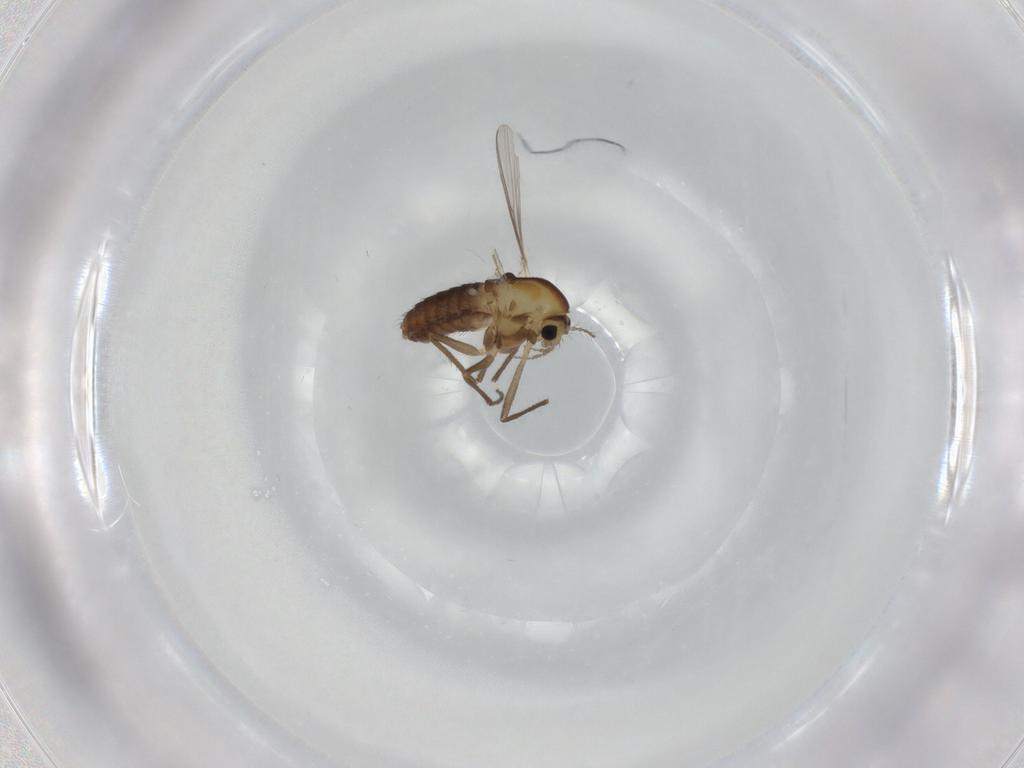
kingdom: Animalia
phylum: Arthropoda
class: Insecta
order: Diptera
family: Chironomidae
